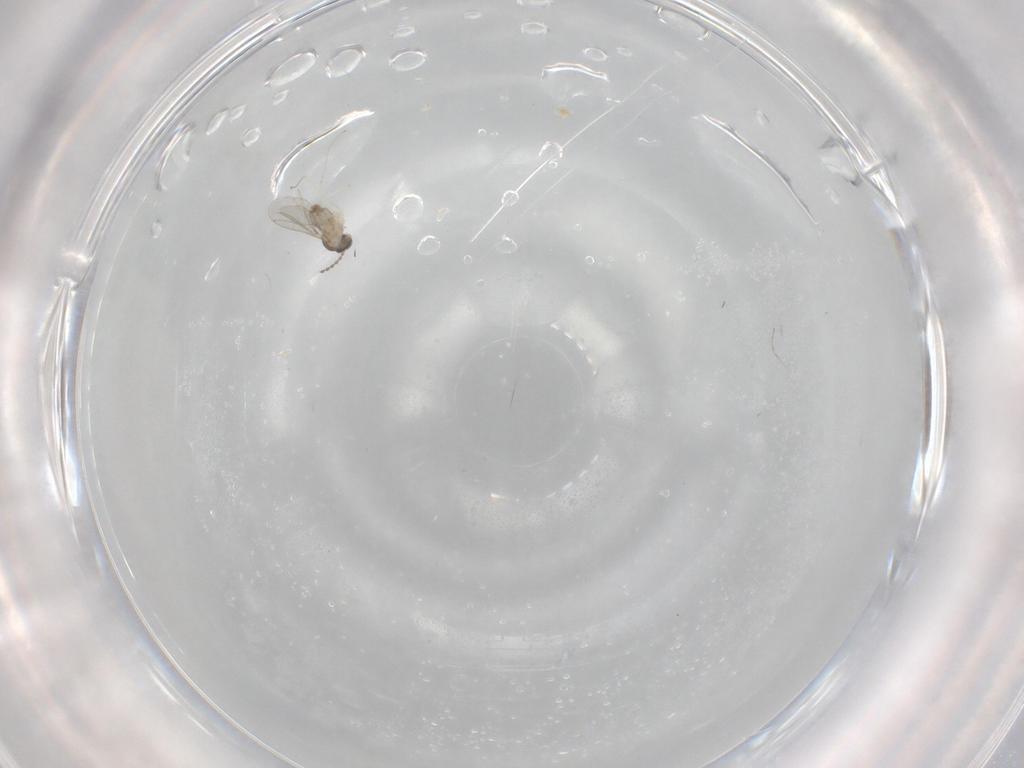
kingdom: Animalia
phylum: Arthropoda
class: Insecta
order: Diptera
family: Cecidomyiidae
